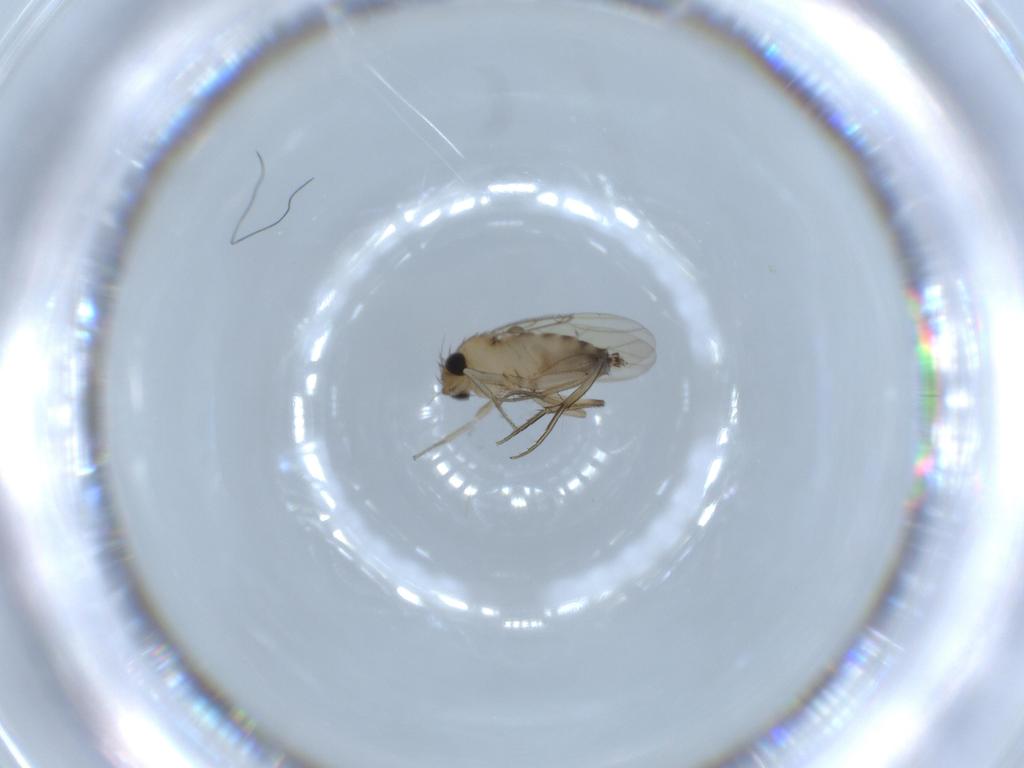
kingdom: Animalia
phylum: Arthropoda
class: Insecta
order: Diptera
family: Phoridae
